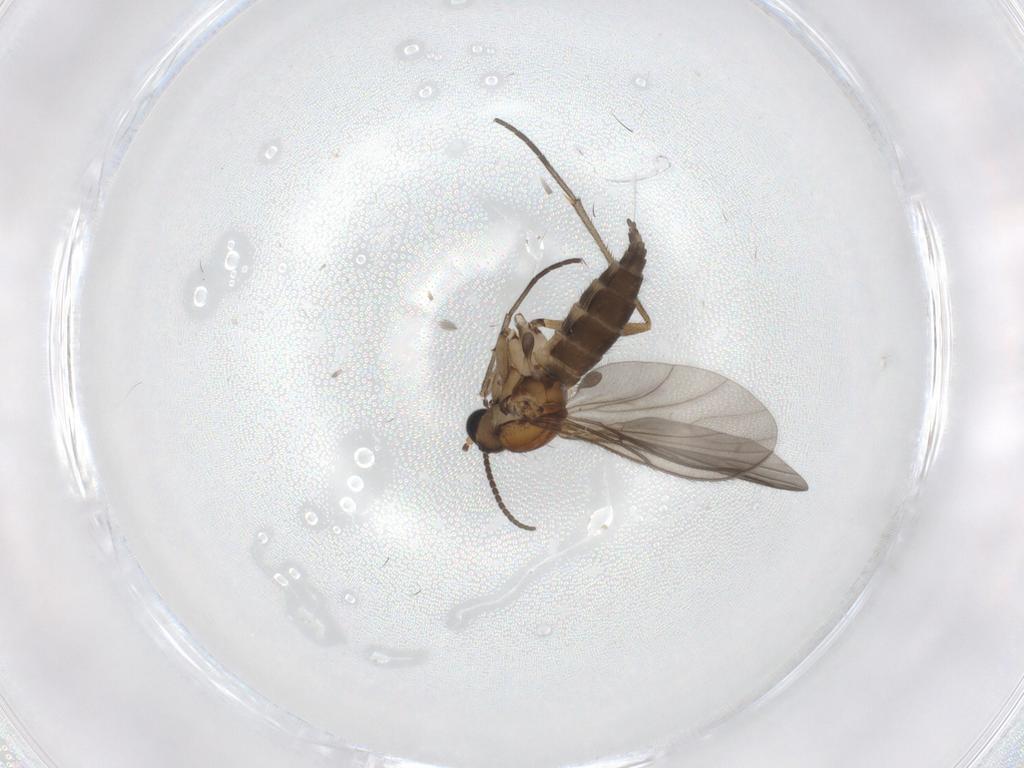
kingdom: Animalia
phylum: Arthropoda
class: Insecta
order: Diptera
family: Sciaridae
